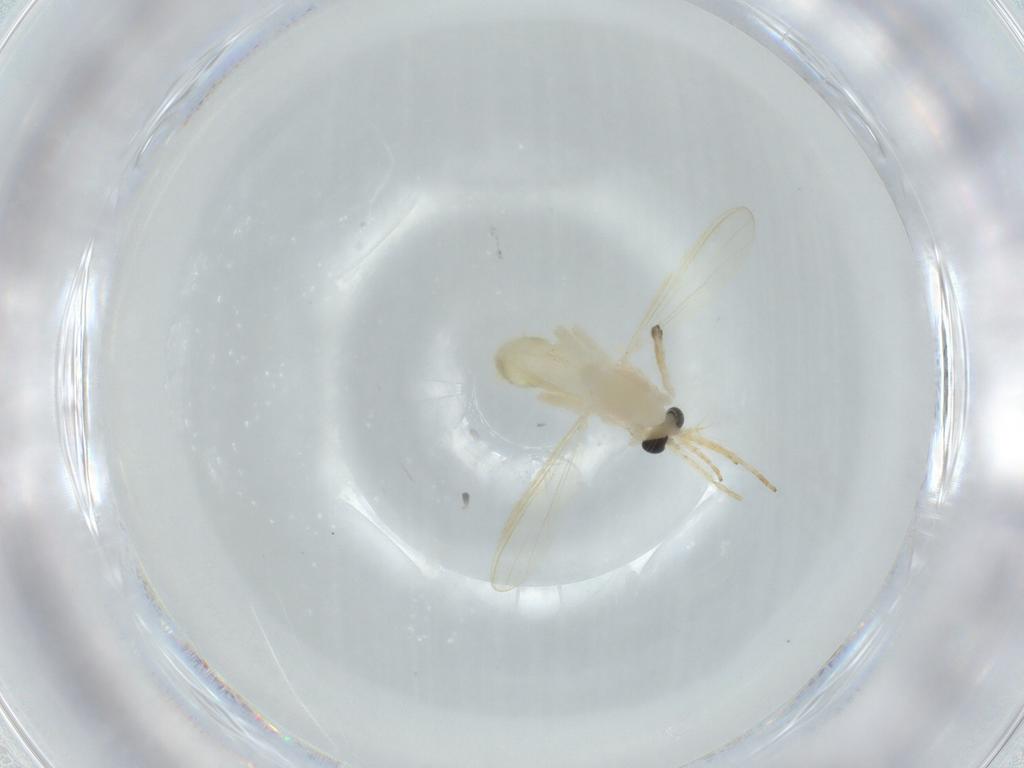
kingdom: Animalia
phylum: Arthropoda
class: Insecta
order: Diptera
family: Chironomidae
